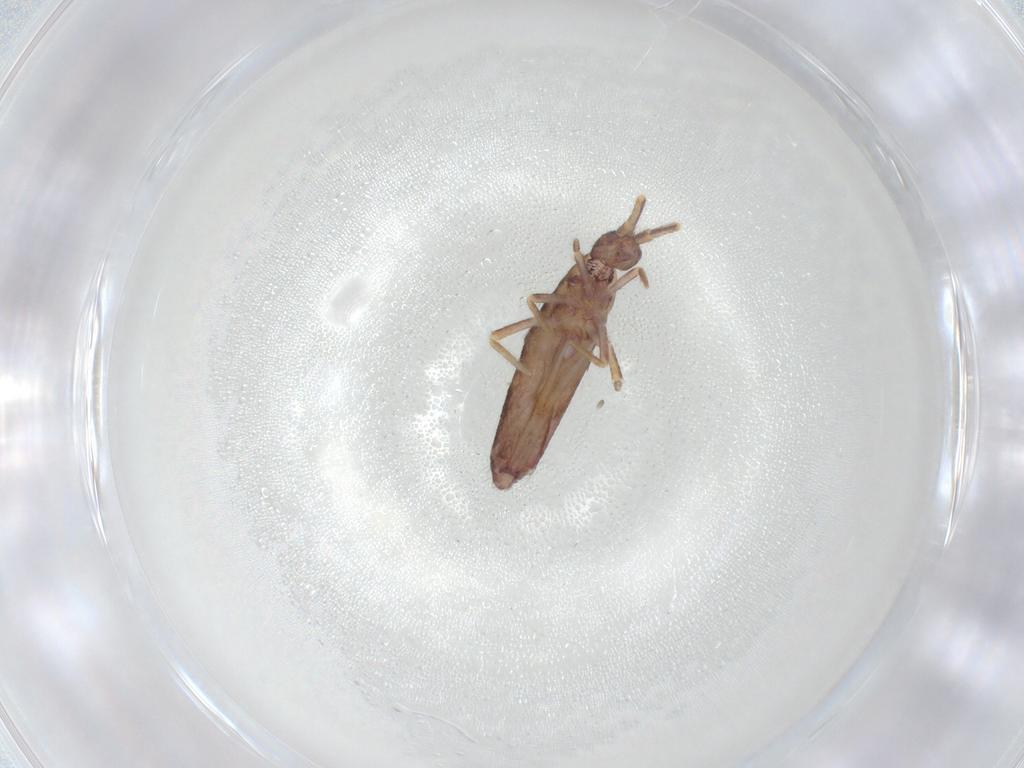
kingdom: Animalia
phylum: Arthropoda
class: Collembola
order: Entomobryomorpha
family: Entomobryidae
